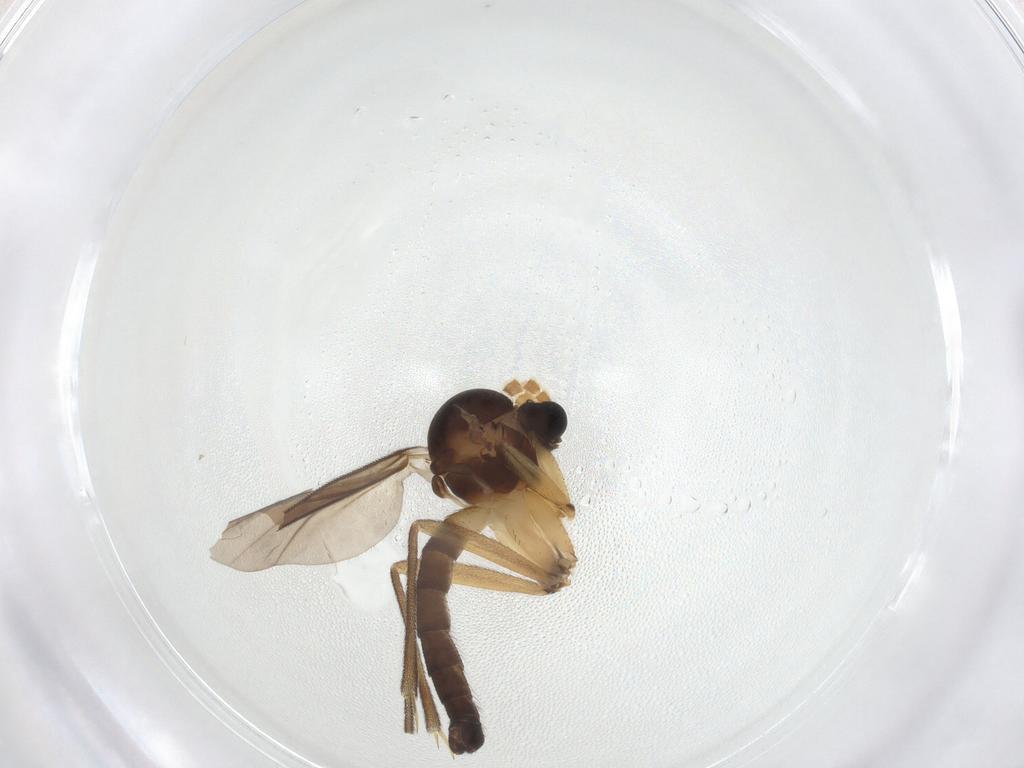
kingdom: Animalia
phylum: Arthropoda
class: Insecta
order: Diptera
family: Mycetophilidae
